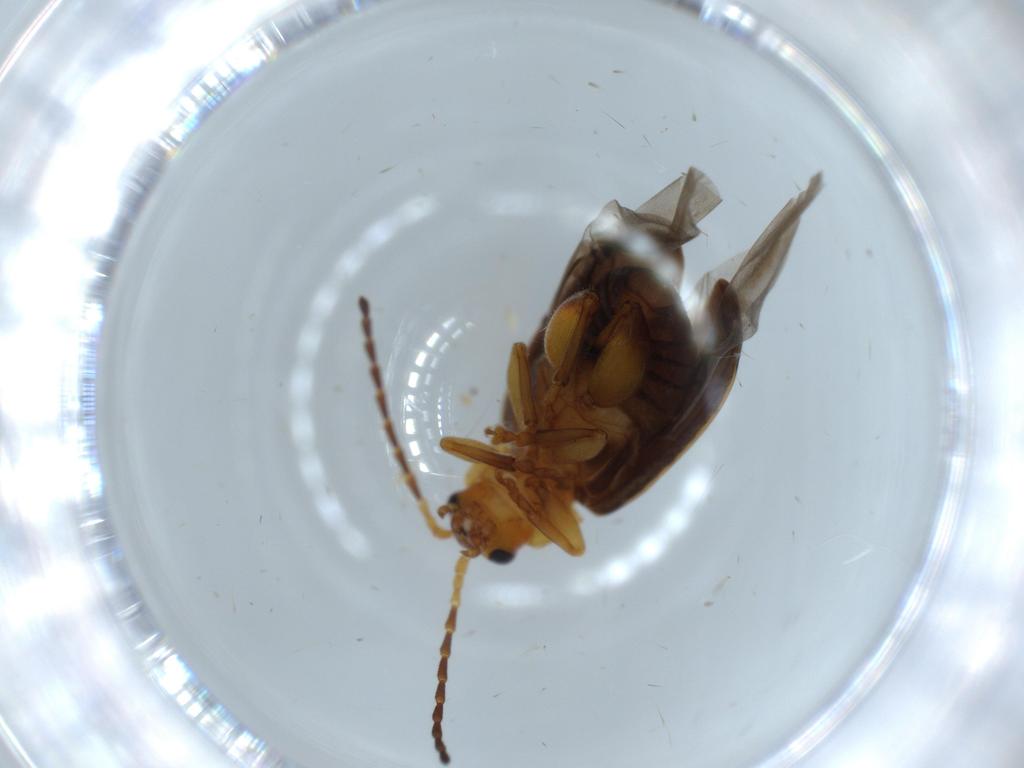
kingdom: Animalia
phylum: Arthropoda
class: Insecta
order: Coleoptera
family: Chrysomelidae
